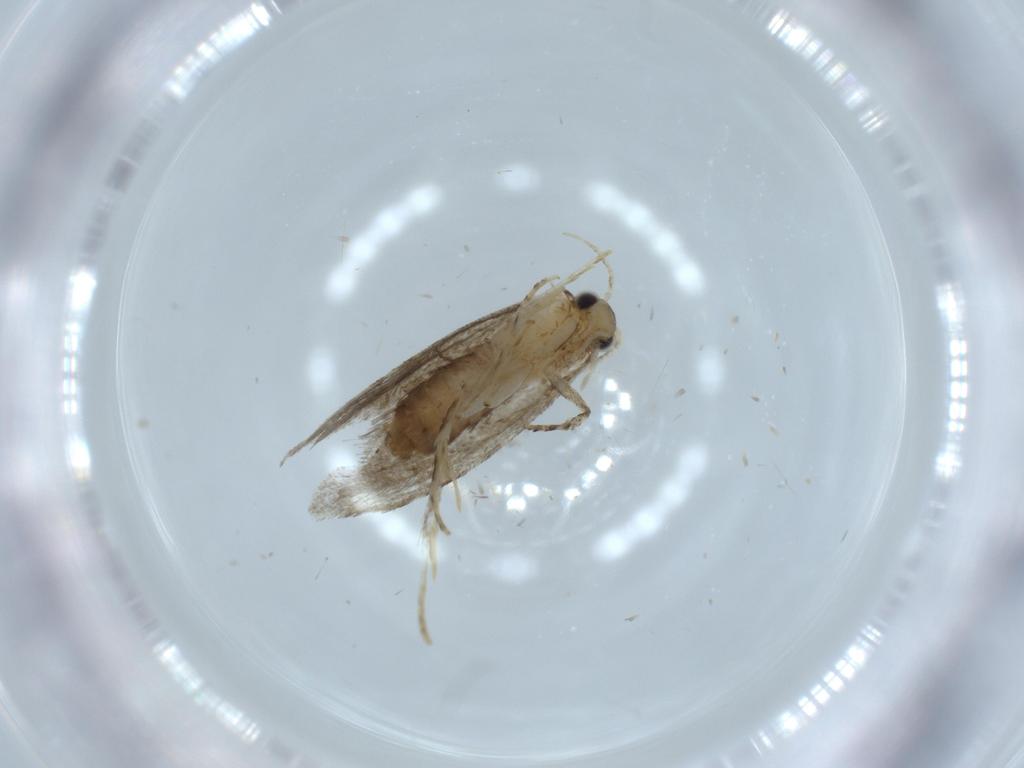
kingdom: Animalia
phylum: Arthropoda
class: Insecta
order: Lepidoptera
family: Tineidae
